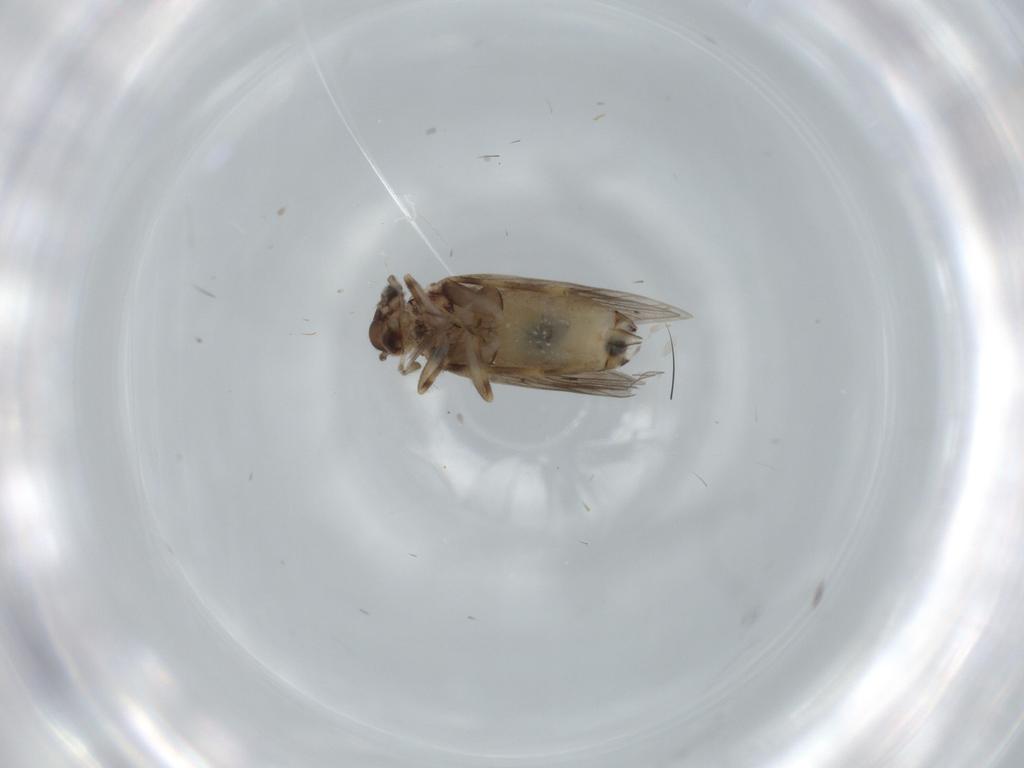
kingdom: Animalia
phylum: Arthropoda
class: Insecta
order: Psocodea
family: Lepidopsocidae
